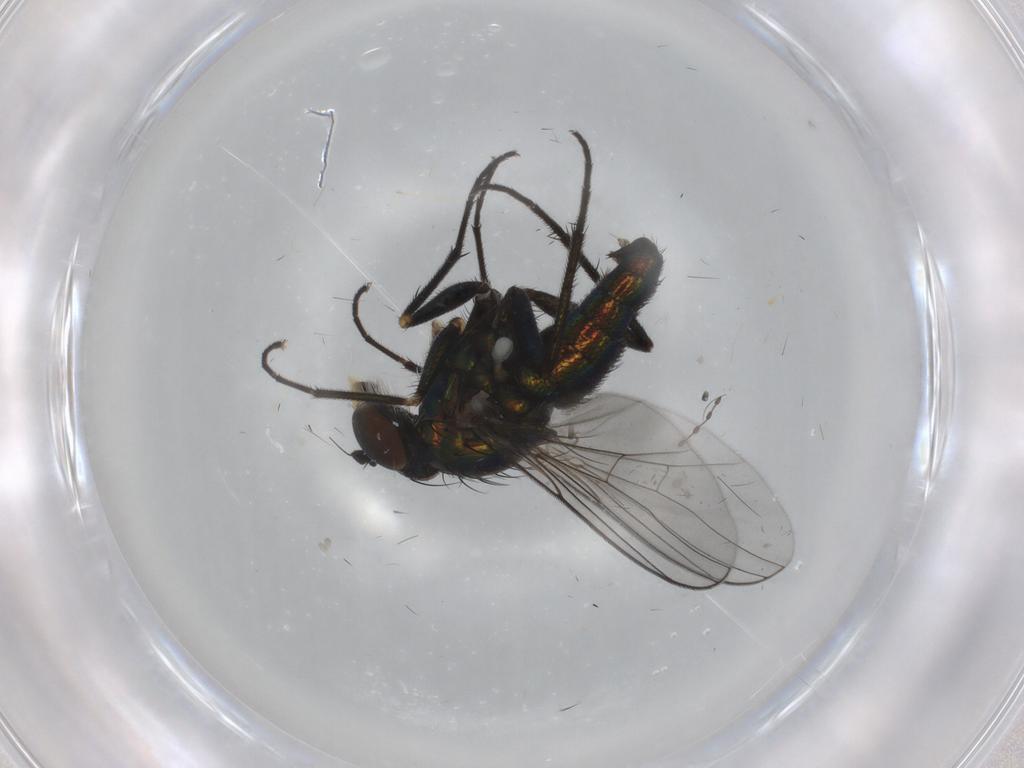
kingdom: Animalia
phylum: Arthropoda
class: Insecta
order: Diptera
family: Dolichopodidae
